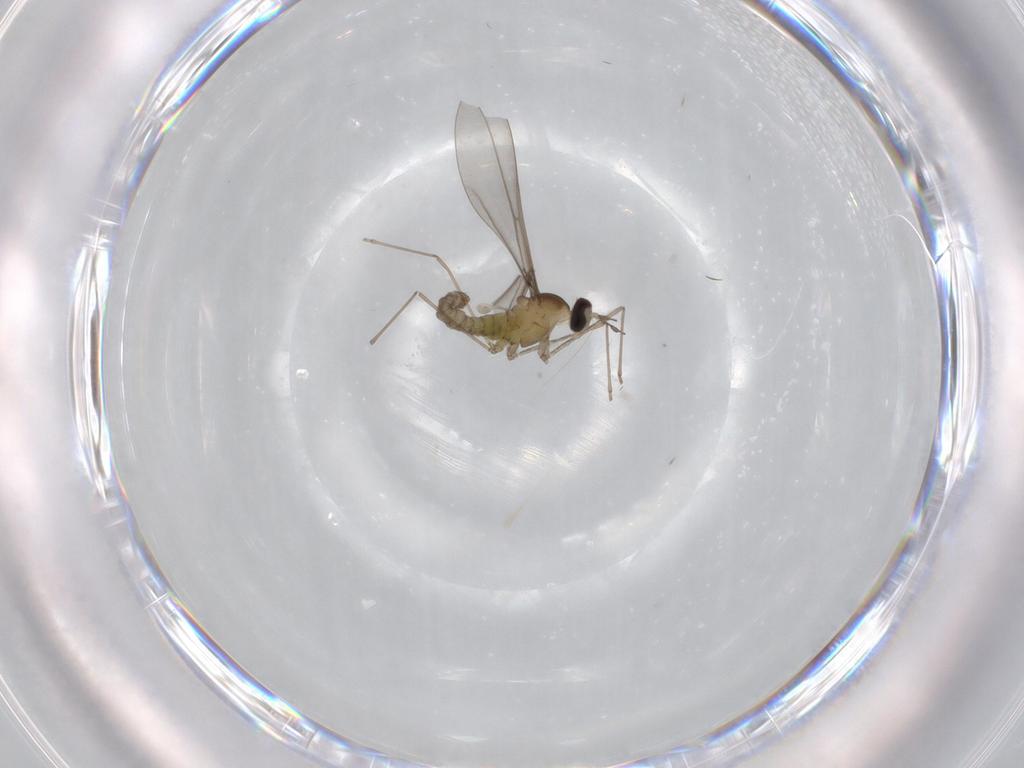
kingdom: Animalia
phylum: Arthropoda
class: Insecta
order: Diptera
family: Cecidomyiidae
